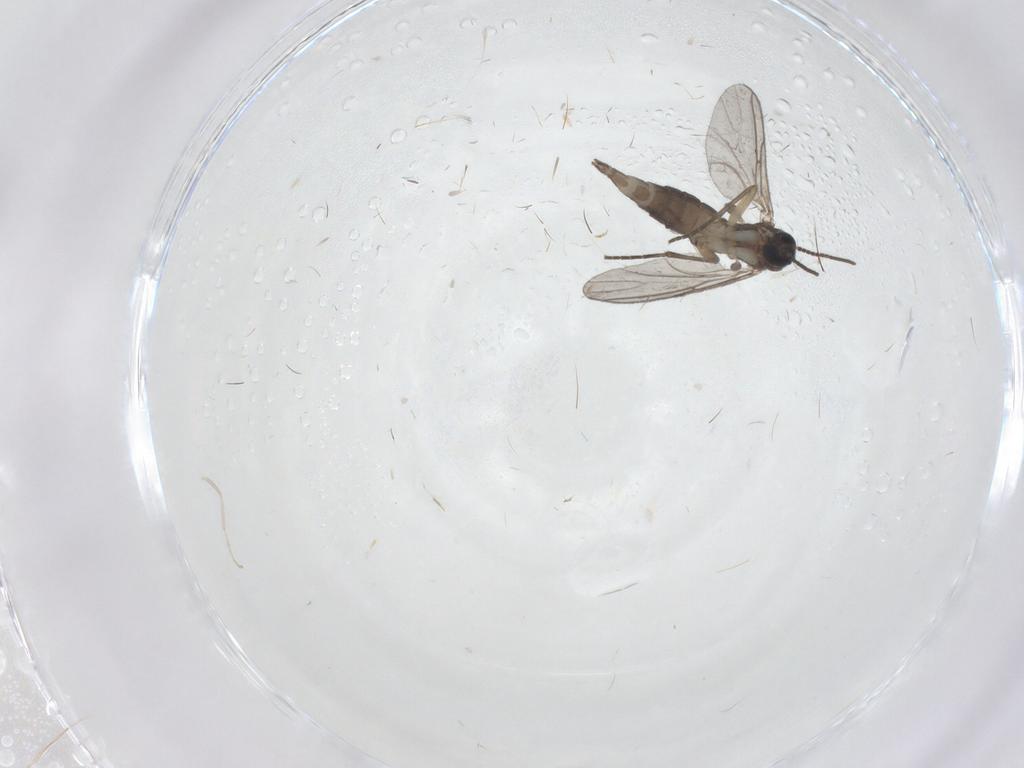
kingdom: Animalia
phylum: Arthropoda
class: Insecta
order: Diptera
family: Sciaridae
